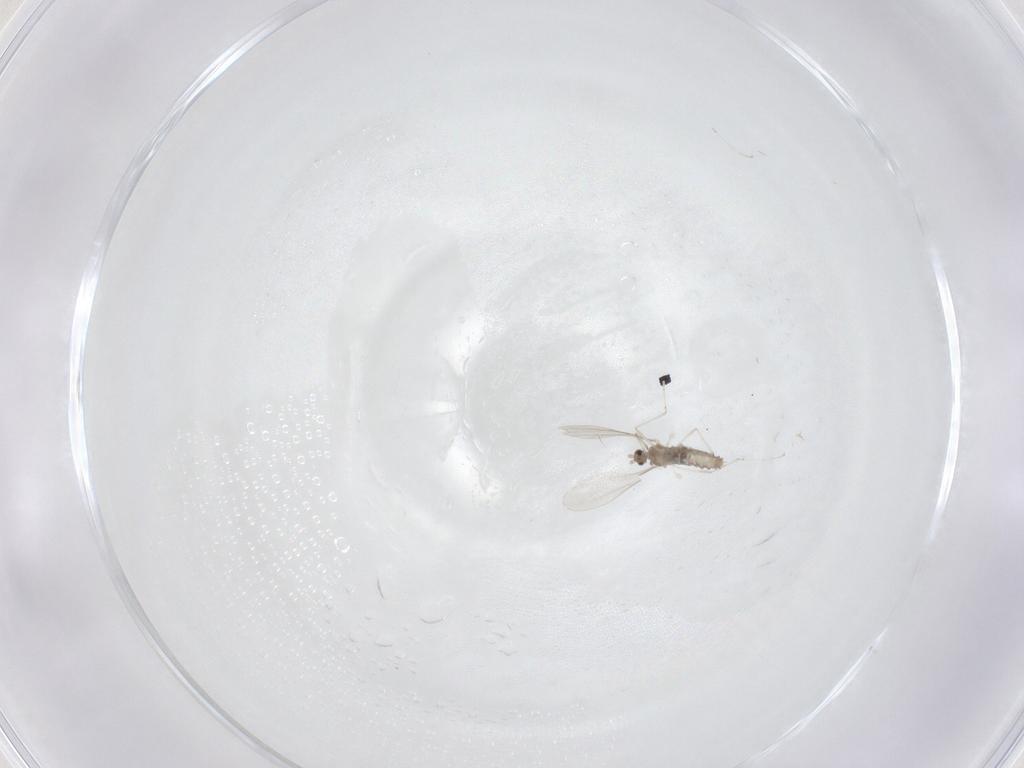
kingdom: Animalia
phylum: Arthropoda
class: Insecta
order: Diptera
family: Cecidomyiidae
